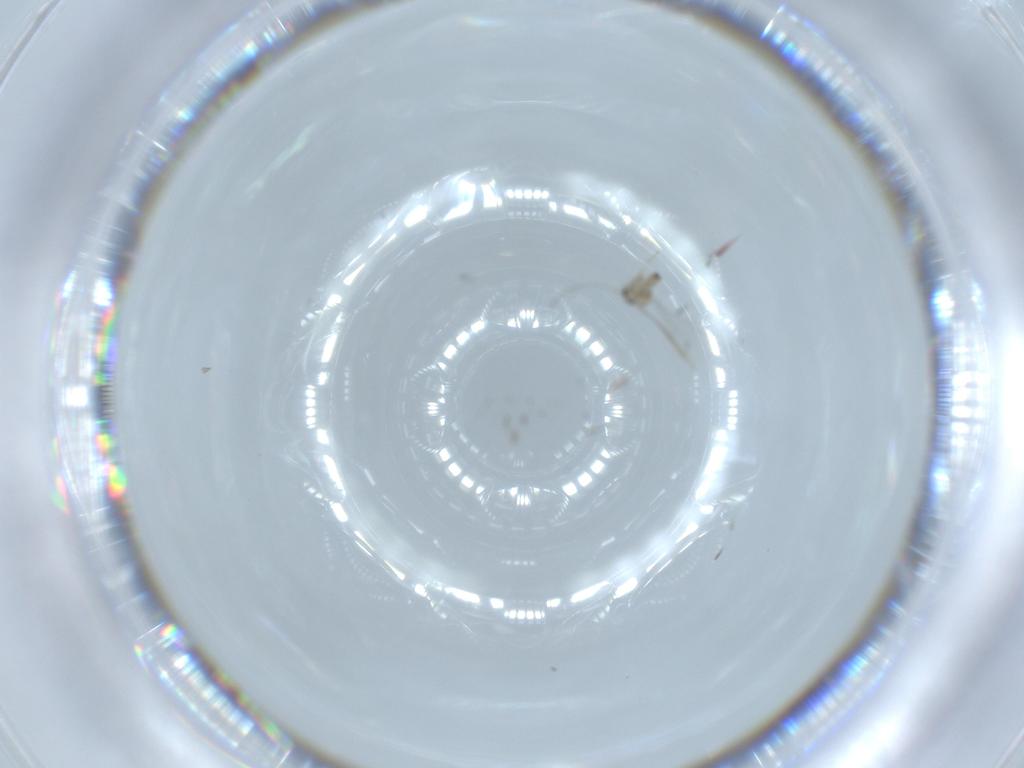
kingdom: Animalia
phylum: Arthropoda
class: Insecta
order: Diptera
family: Cecidomyiidae
